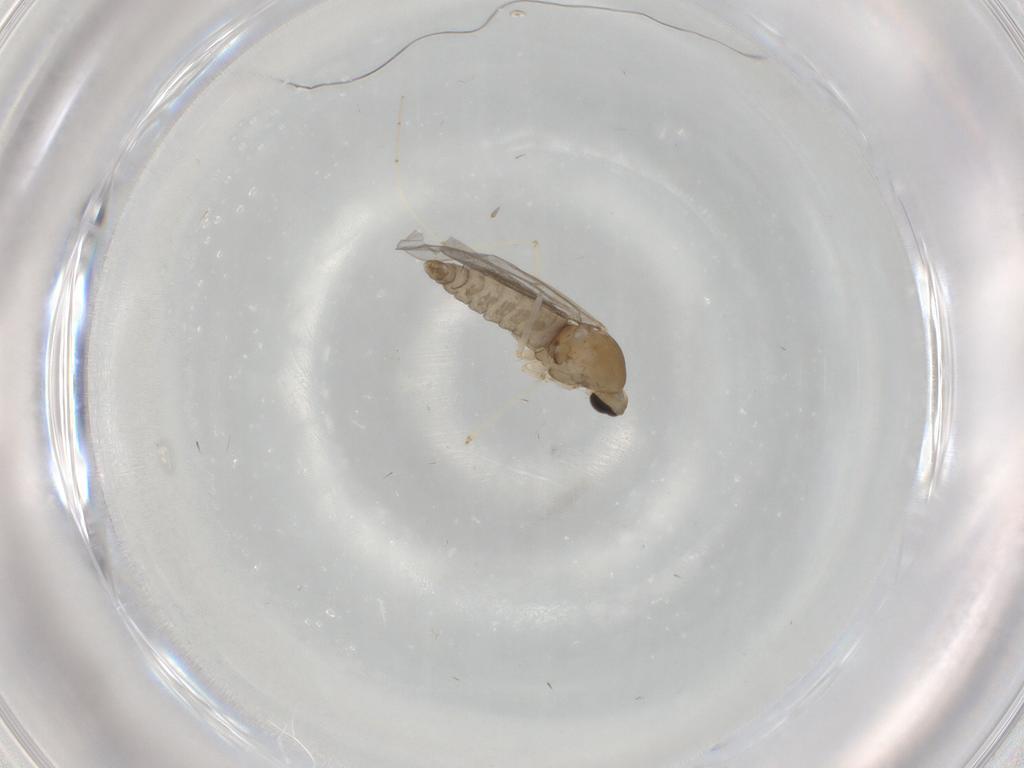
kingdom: Animalia
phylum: Arthropoda
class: Insecta
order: Diptera
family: Cecidomyiidae
